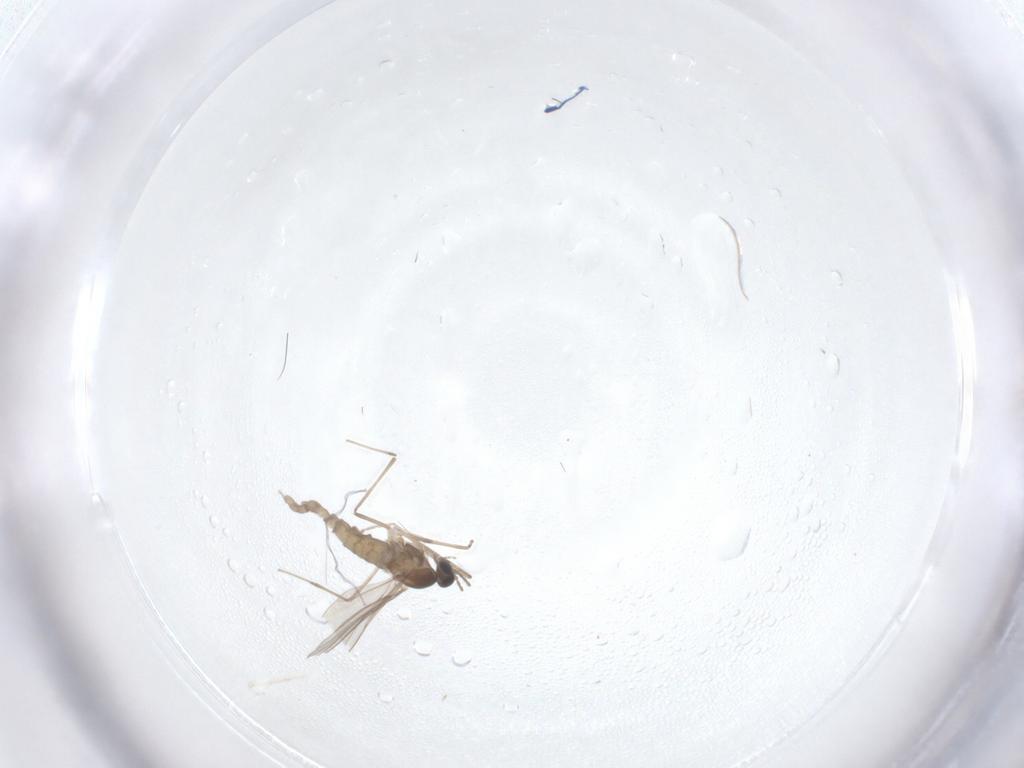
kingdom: Animalia
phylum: Arthropoda
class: Insecta
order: Diptera
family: Cecidomyiidae
